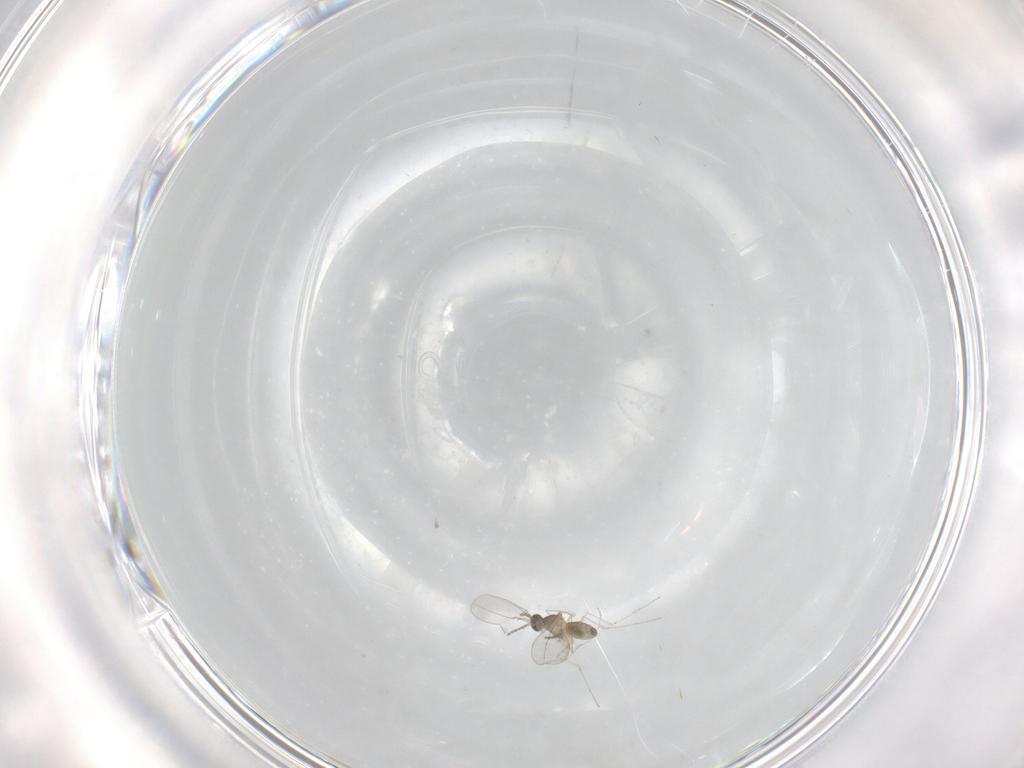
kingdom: Animalia
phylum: Arthropoda
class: Insecta
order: Diptera
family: Cecidomyiidae
